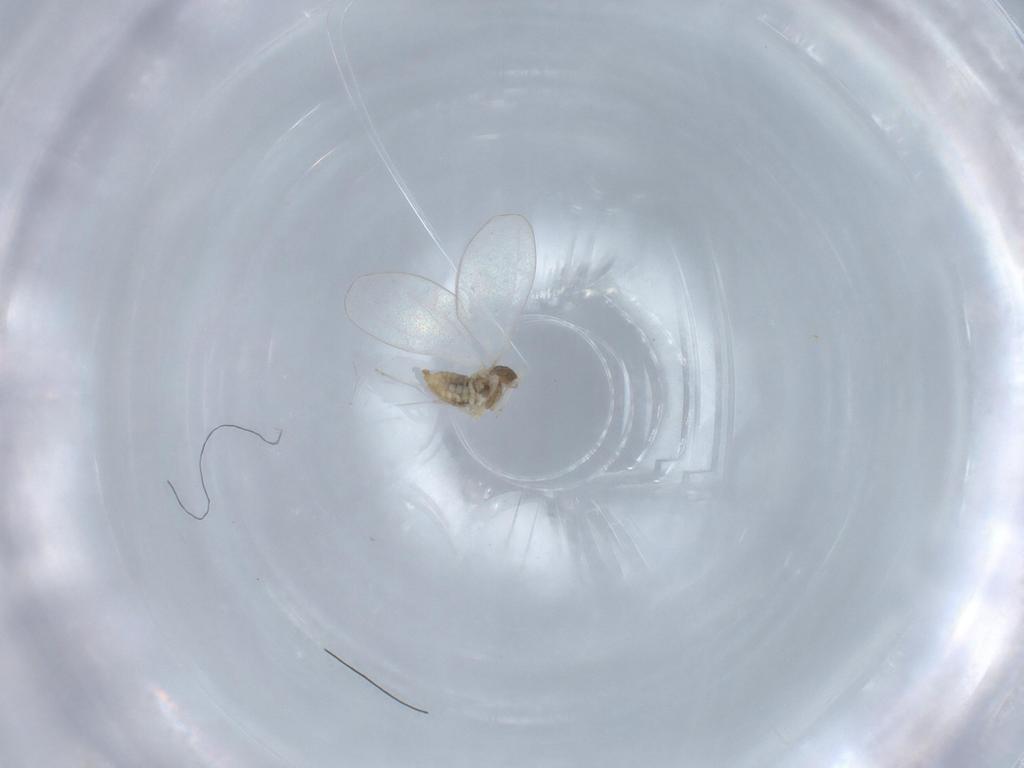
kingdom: Animalia
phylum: Arthropoda
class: Insecta
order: Diptera
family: Cecidomyiidae
